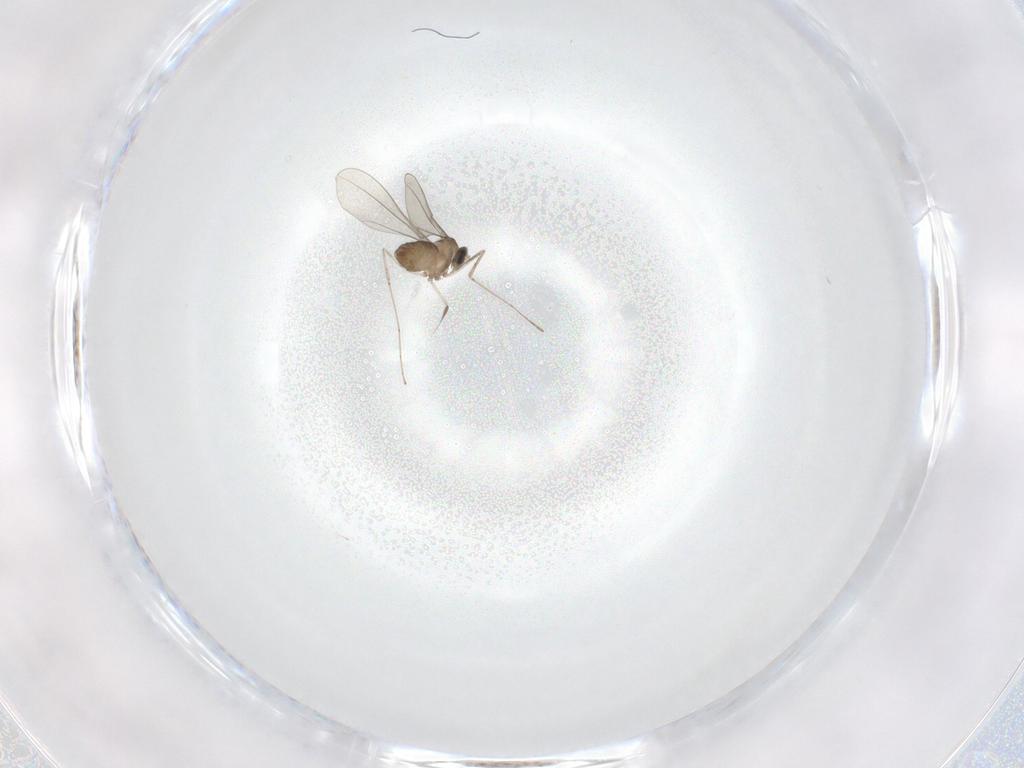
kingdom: Animalia
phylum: Arthropoda
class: Insecta
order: Diptera
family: Cecidomyiidae
